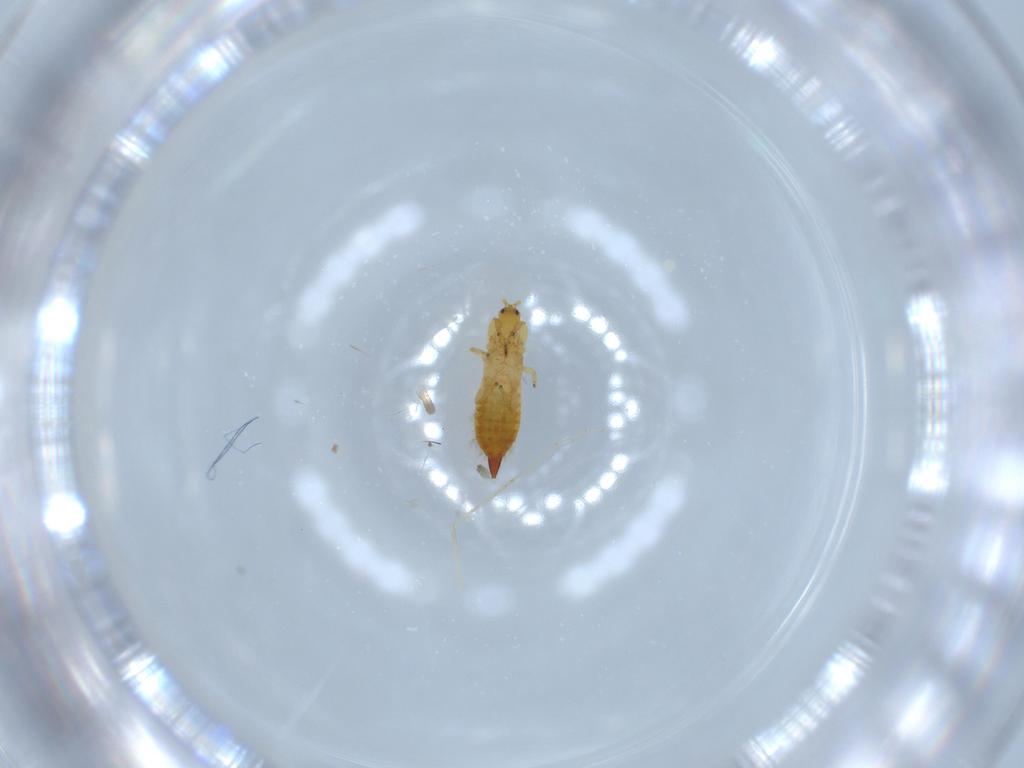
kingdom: Animalia
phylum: Arthropoda
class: Insecta
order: Thysanoptera
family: Phlaeothripidae
